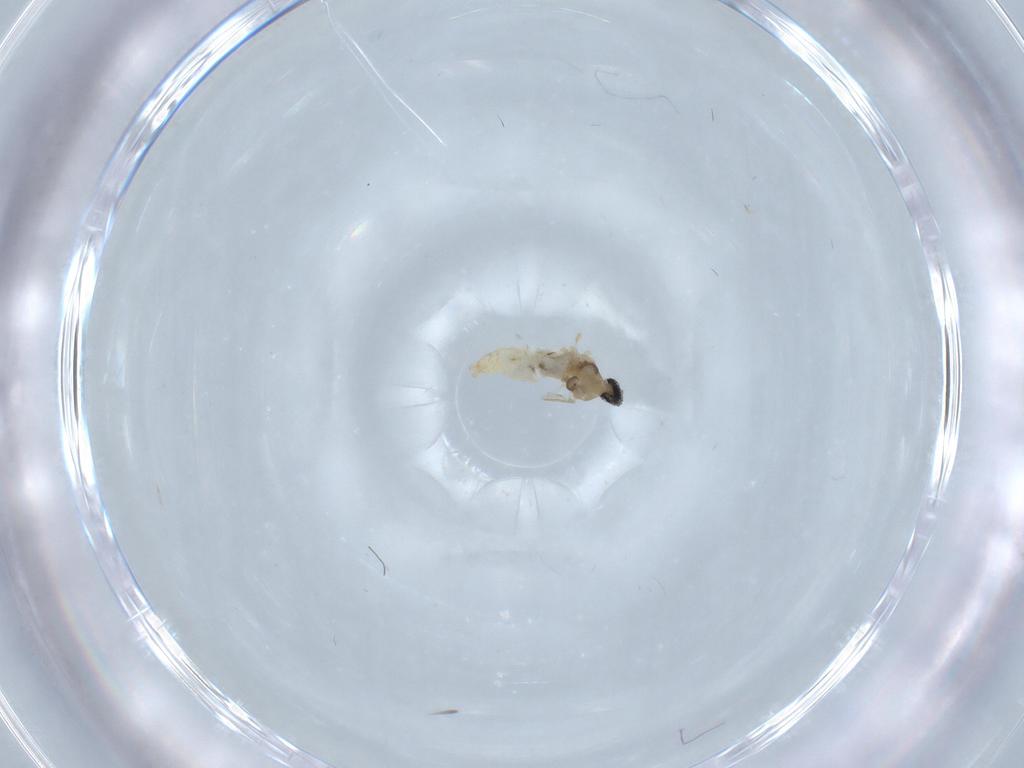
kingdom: Animalia
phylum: Arthropoda
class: Insecta
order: Diptera
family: Cecidomyiidae
